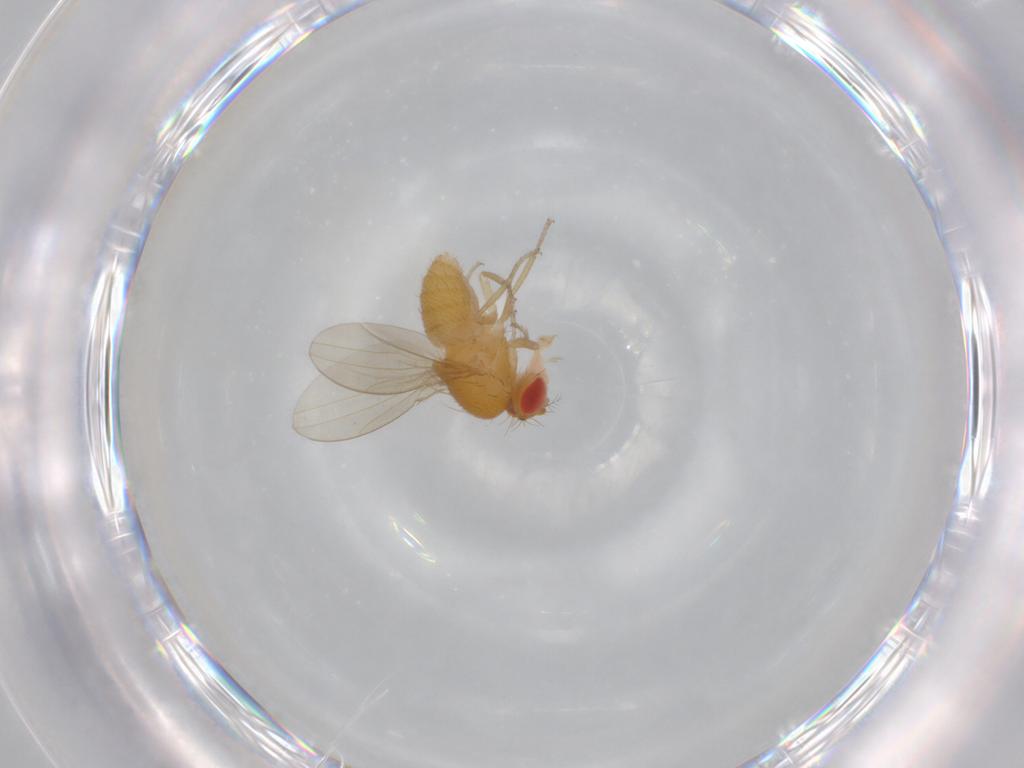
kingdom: Animalia
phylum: Arthropoda
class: Insecta
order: Diptera
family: Drosophilidae
